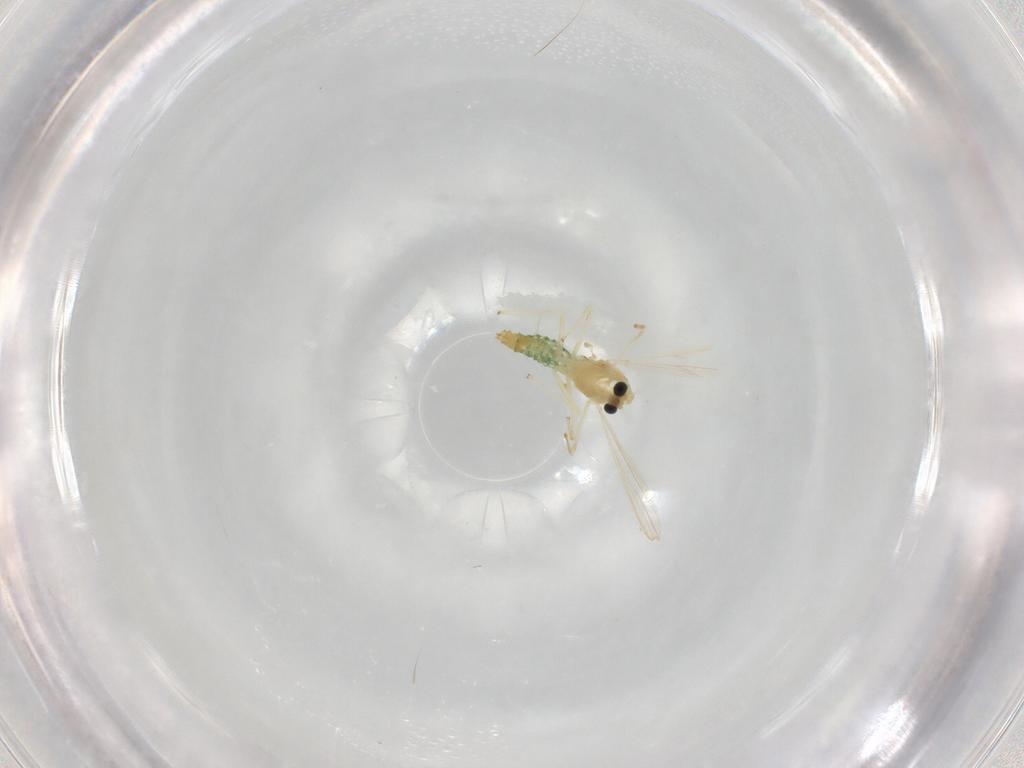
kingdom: Animalia
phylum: Arthropoda
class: Insecta
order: Diptera
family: Chironomidae
